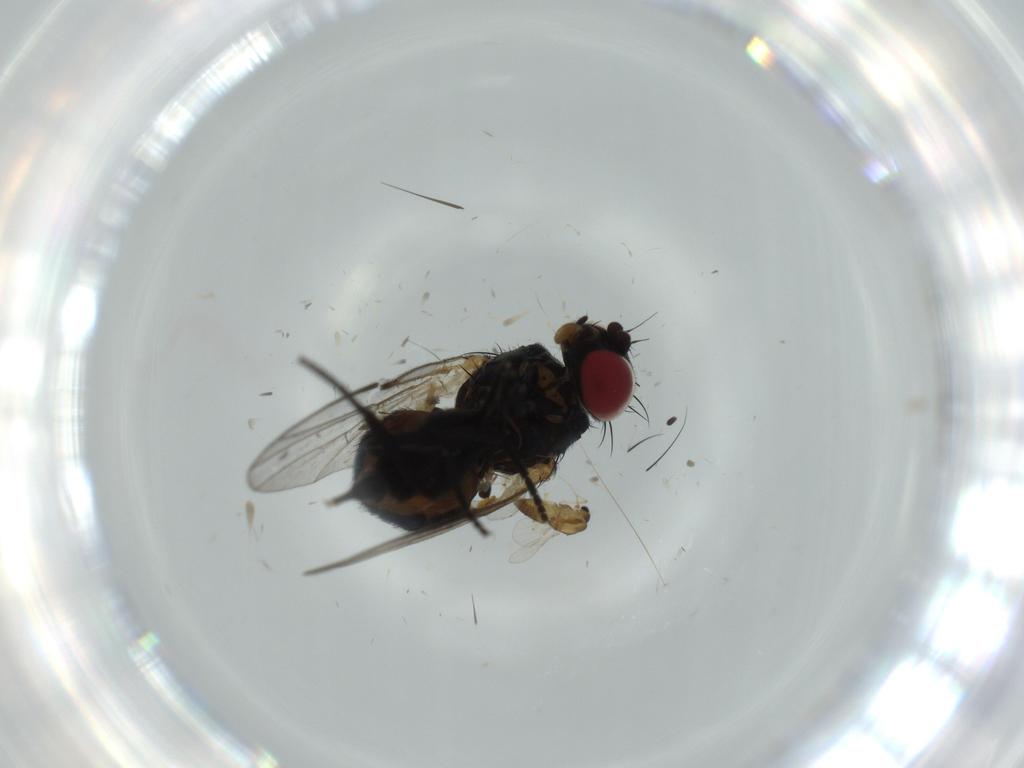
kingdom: Animalia
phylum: Arthropoda
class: Insecta
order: Diptera
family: Chironomidae
